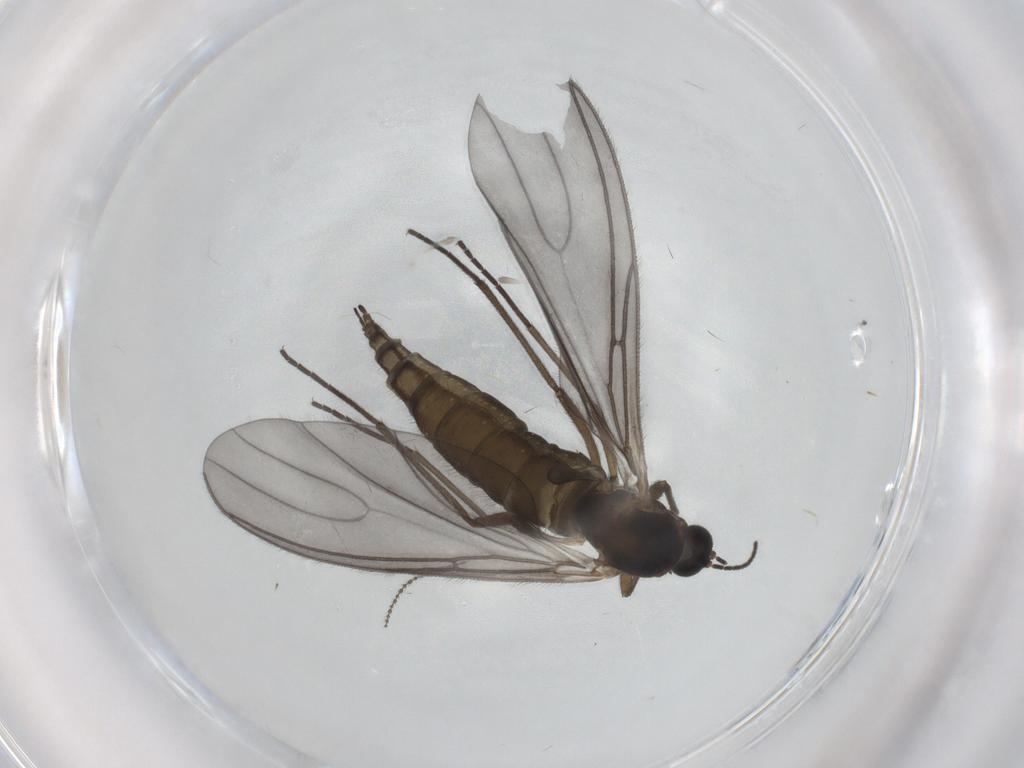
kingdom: Animalia
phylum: Arthropoda
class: Insecta
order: Diptera
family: Cecidomyiidae
